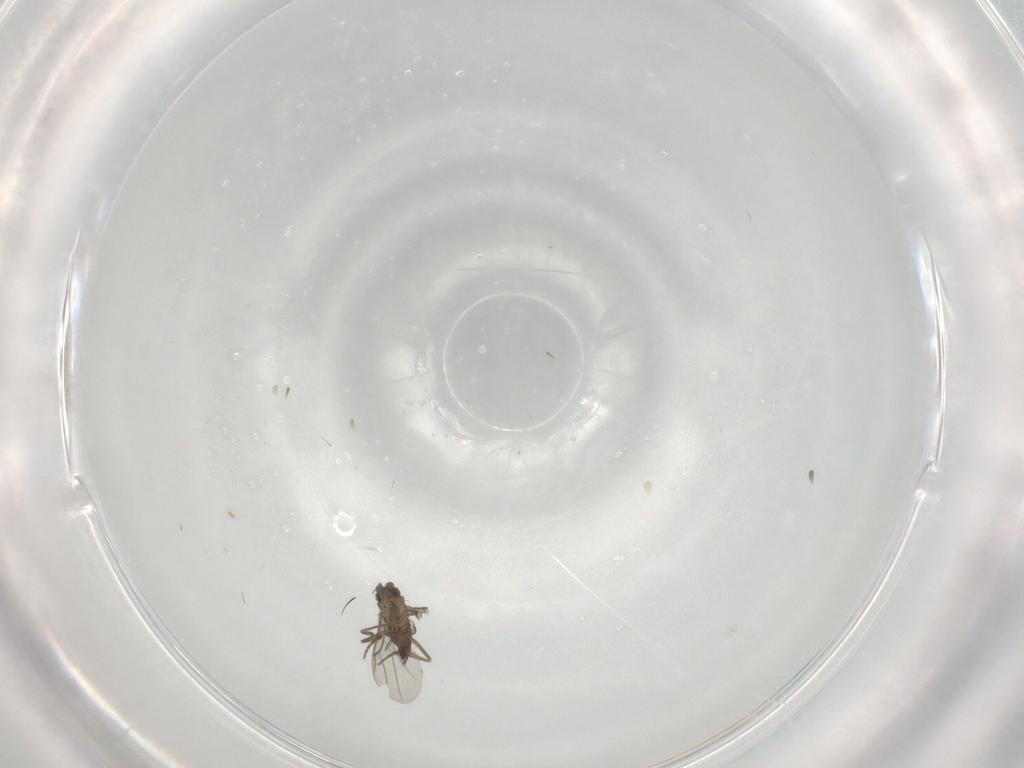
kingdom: Animalia
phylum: Arthropoda
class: Insecta
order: Diptera
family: Phoridae
